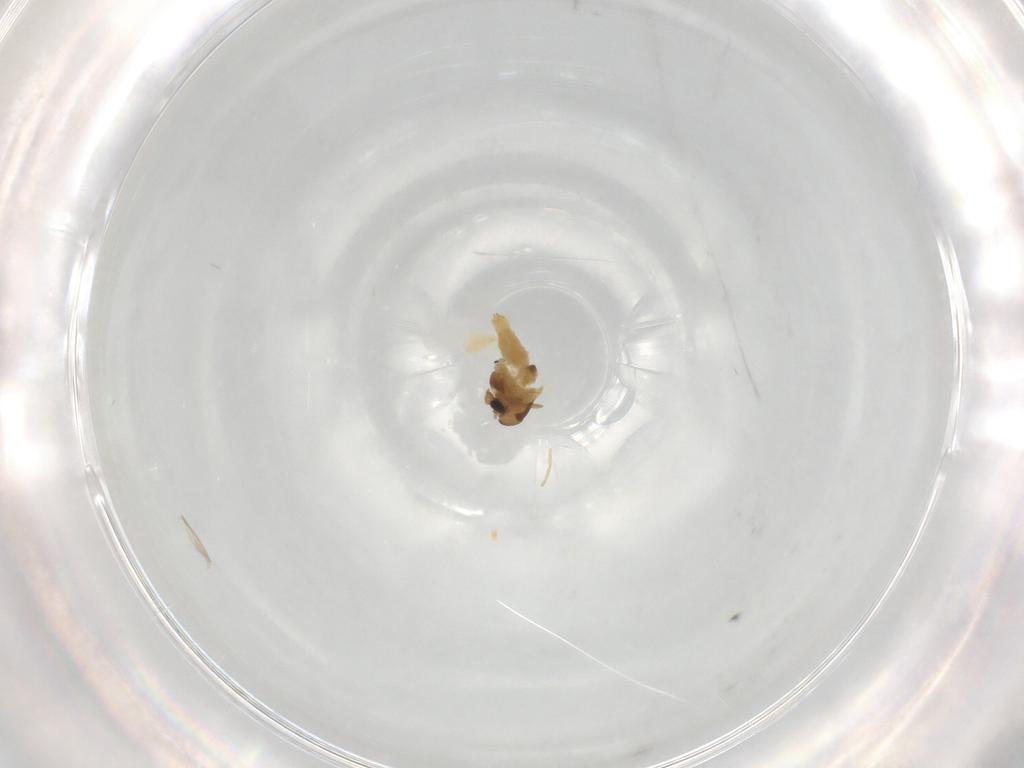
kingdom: Animalia
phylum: Arthropoda
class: Insecta
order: Diptera
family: Chironomidae
